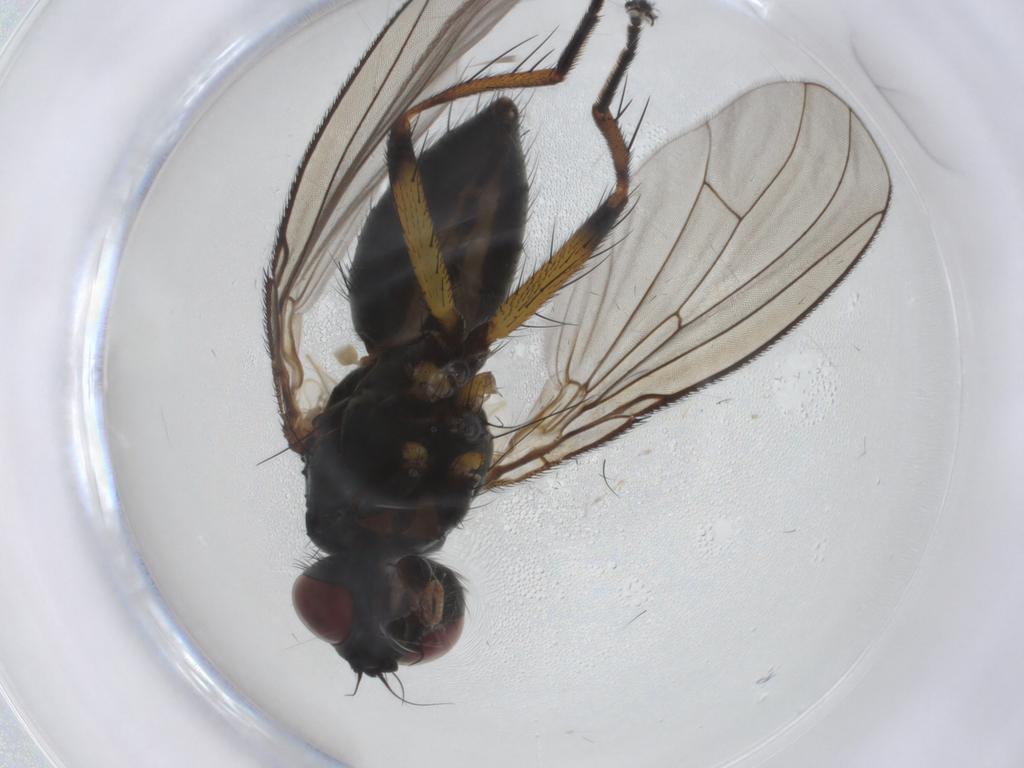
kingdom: Animalia
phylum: Arthropoda
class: Insecta
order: Diptera
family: Muscidae
